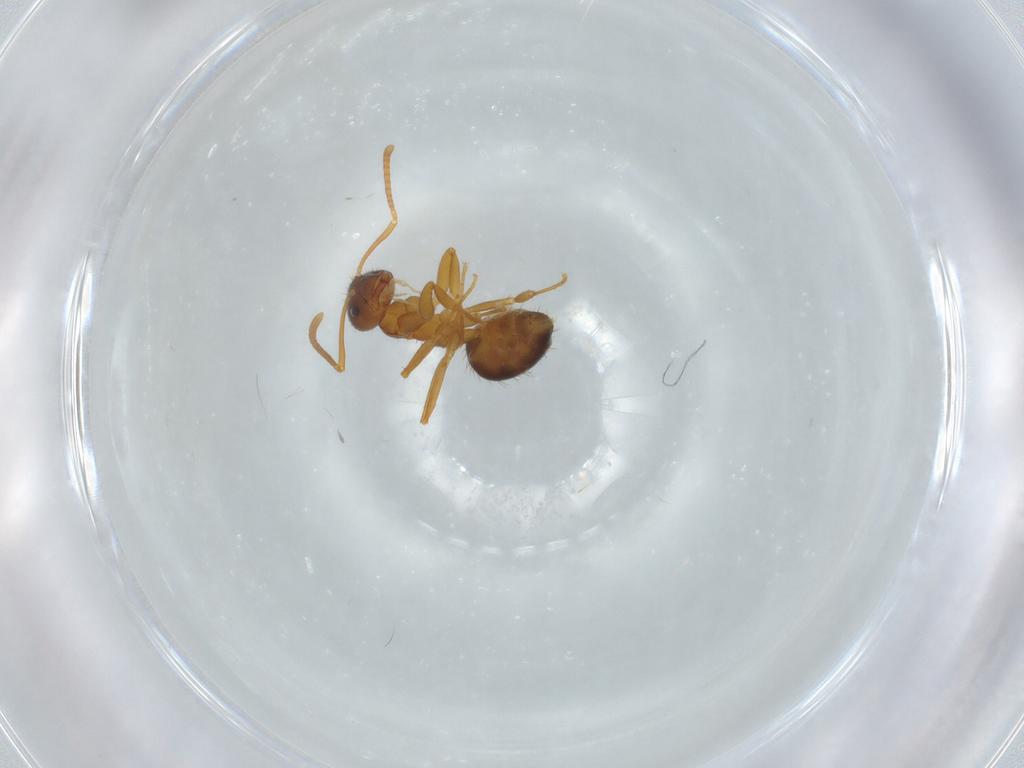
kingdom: Animalia
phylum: Arthropoda
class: Insecta
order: Hymenoptera
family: Formicidae
